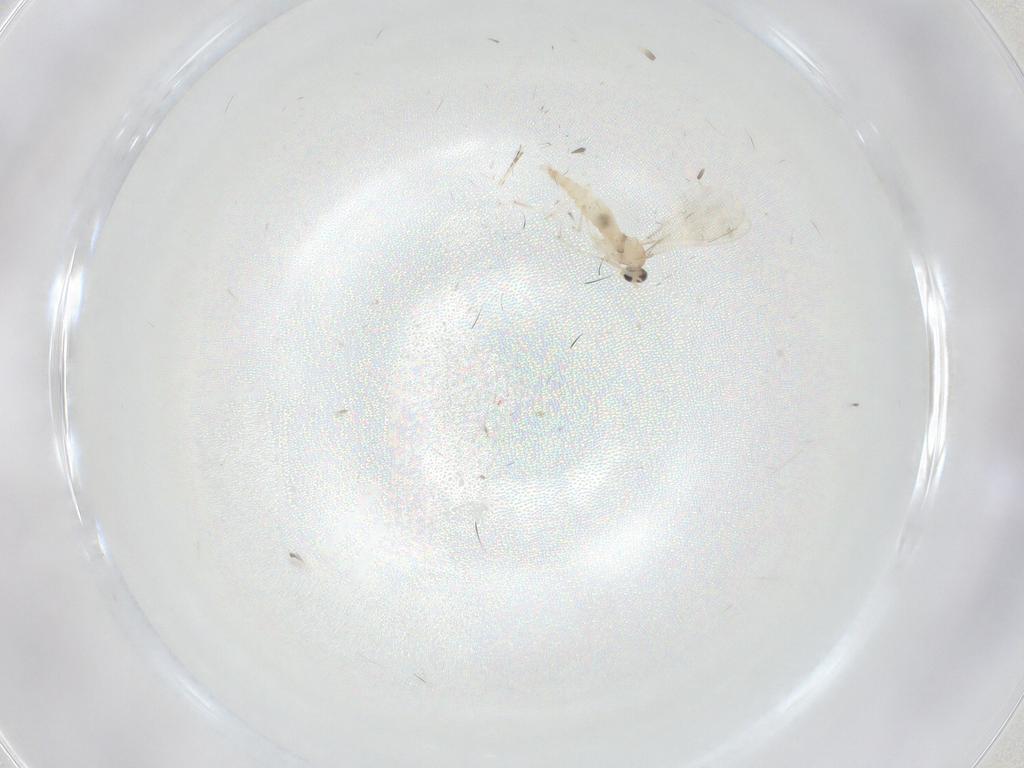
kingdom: Animalia
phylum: Arthropoda
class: Insecta
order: Diptera
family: Cecidomyiidae
